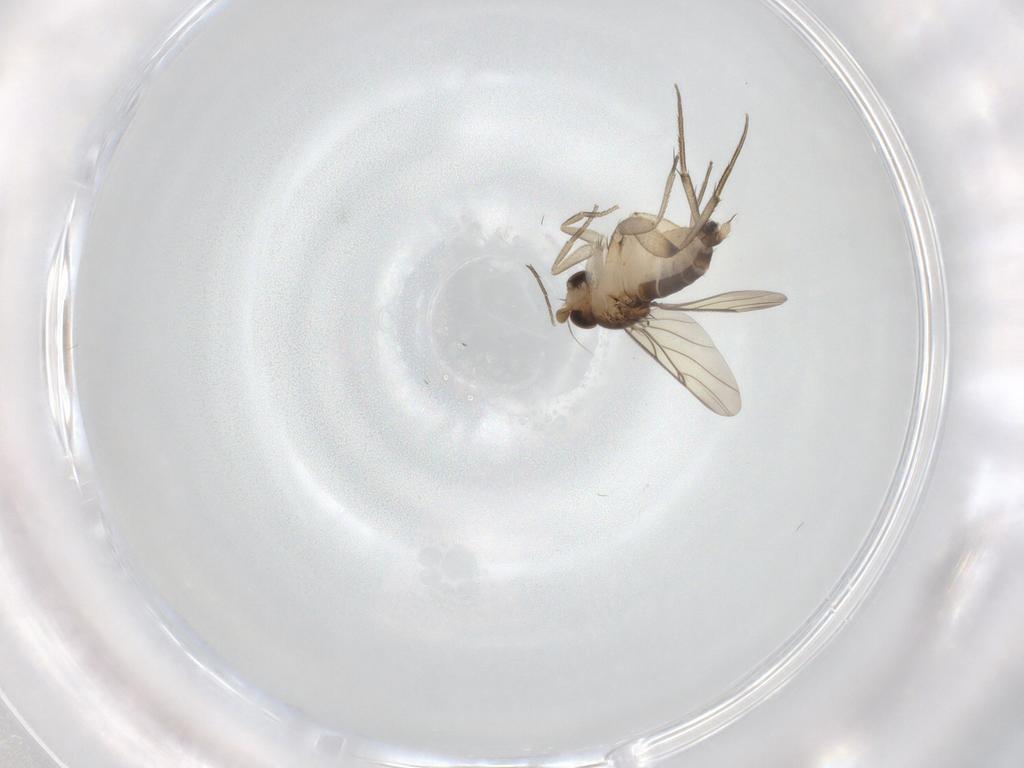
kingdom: Animalia
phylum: Arthropoda
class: Insecta
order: Diptera
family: Phoridae
